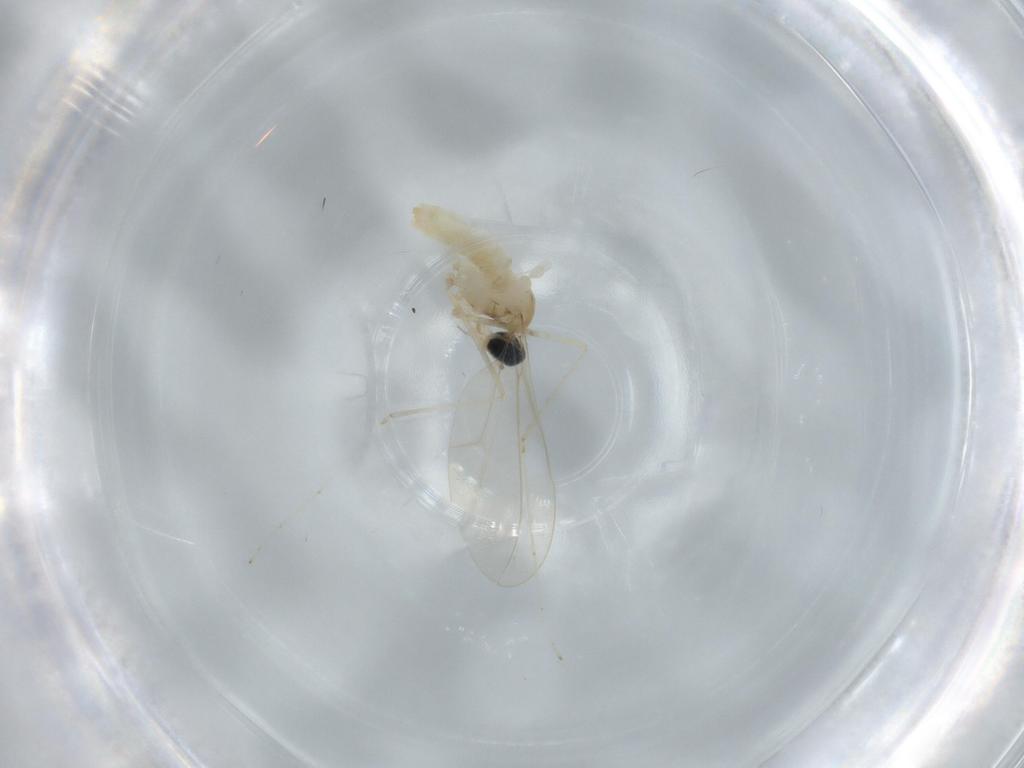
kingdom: Animalia
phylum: Arthropoda
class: Insecta
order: Diptera
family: Cecidomyiidae
